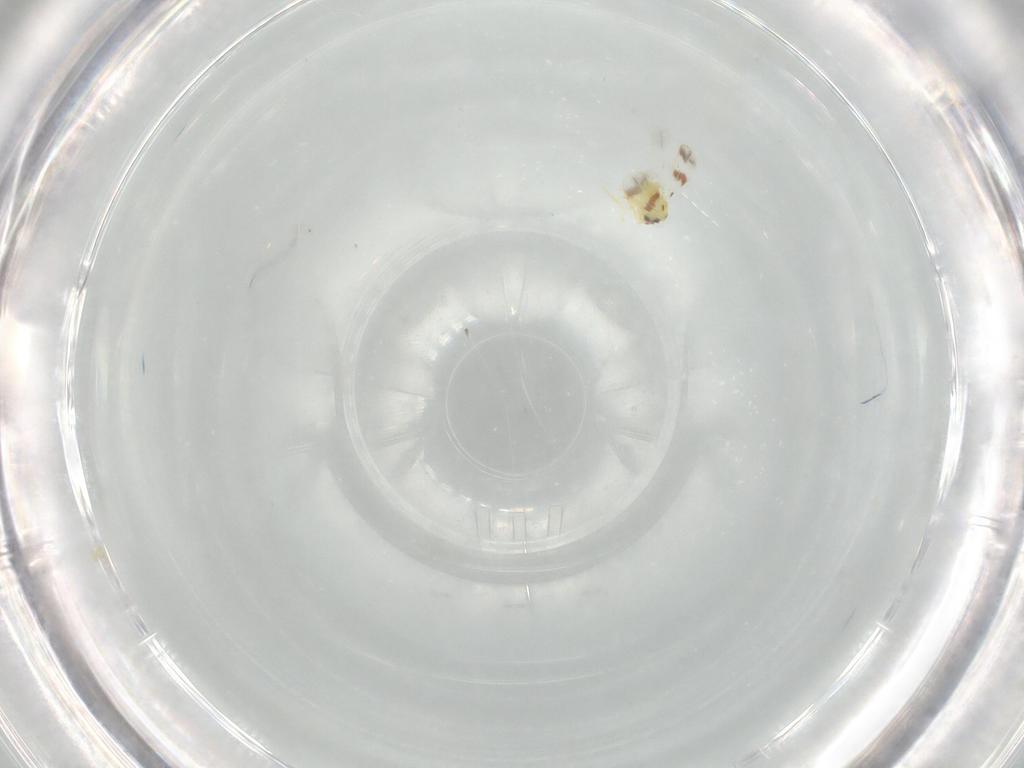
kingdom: Animalia
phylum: Arthropoda
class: Insecta
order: Hemiptera
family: Aleyrodidae
